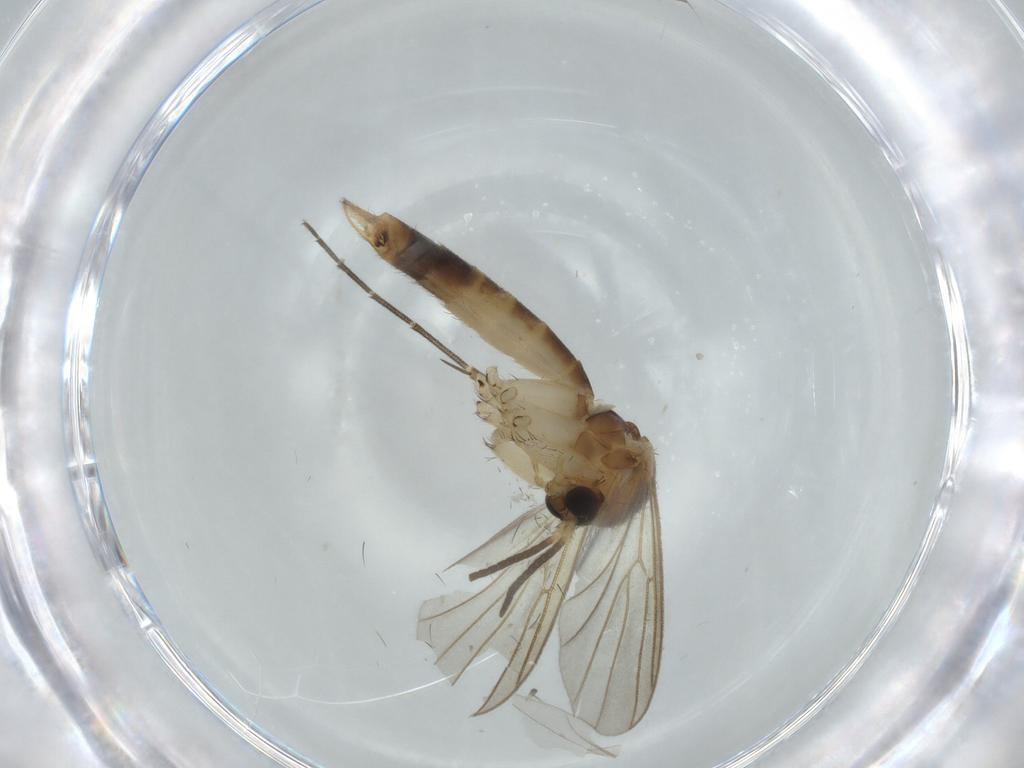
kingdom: Animalia
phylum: Arthropoda
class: Insecta
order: Diptera
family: Mycetophilidae
